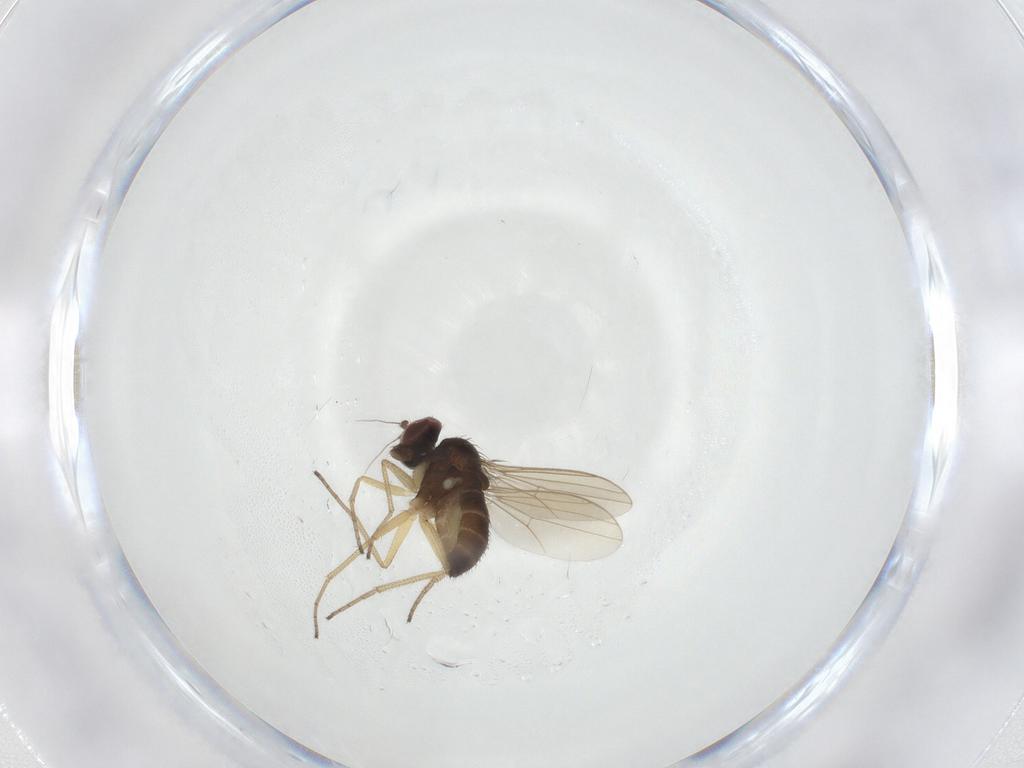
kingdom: Animalia
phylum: Arthropoda
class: Insecta
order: Diptera
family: Dolichopodidae
